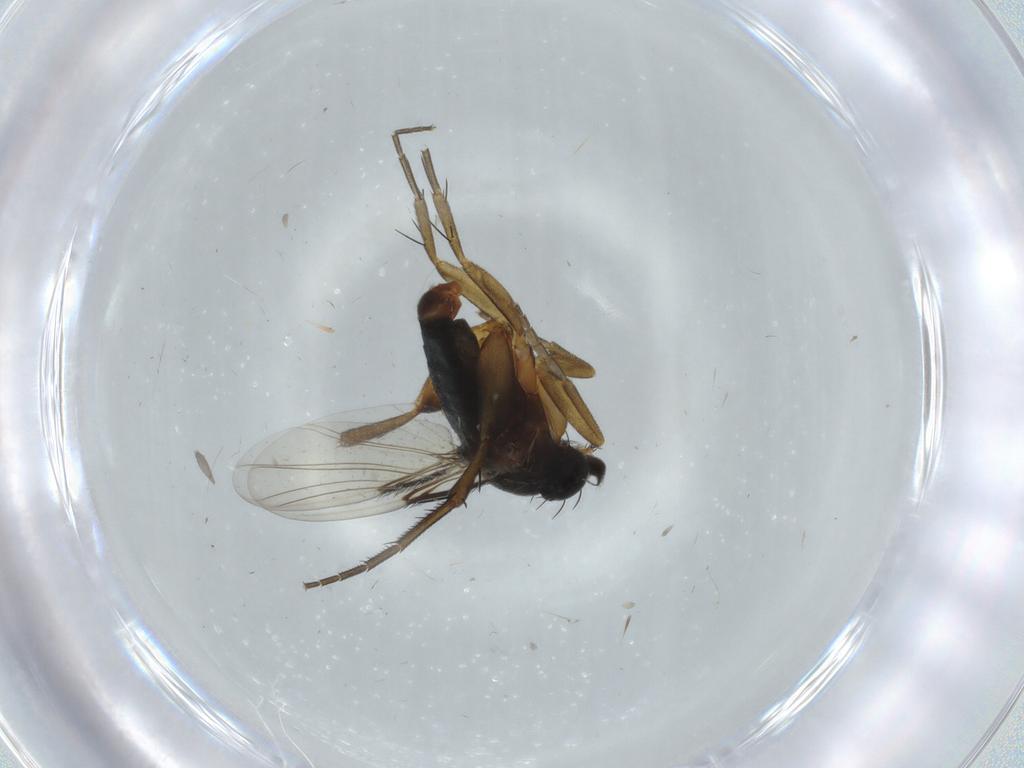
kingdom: Animalia
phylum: Arthropoda
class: Insecta
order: Diptera
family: Phoridae
